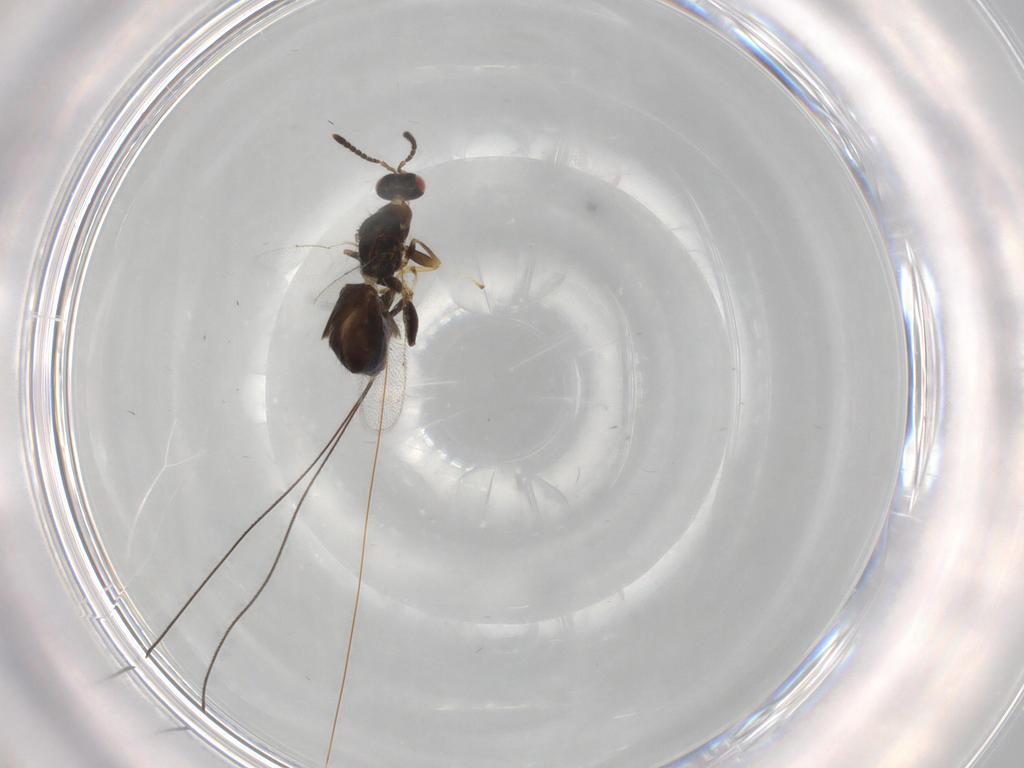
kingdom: Animalia
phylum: Arthropoda
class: Insecta
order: Hymenoptera
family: Torymidae
